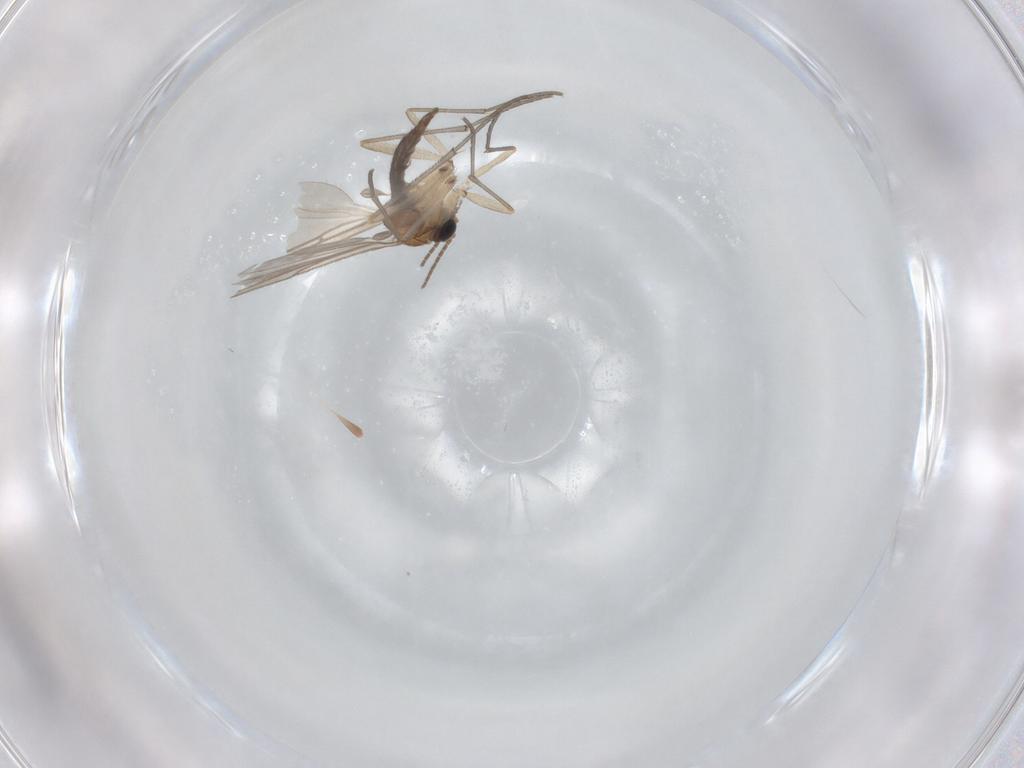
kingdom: Animalia
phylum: Arthropoda
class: Insecta
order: Diptera
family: Sciaridae
